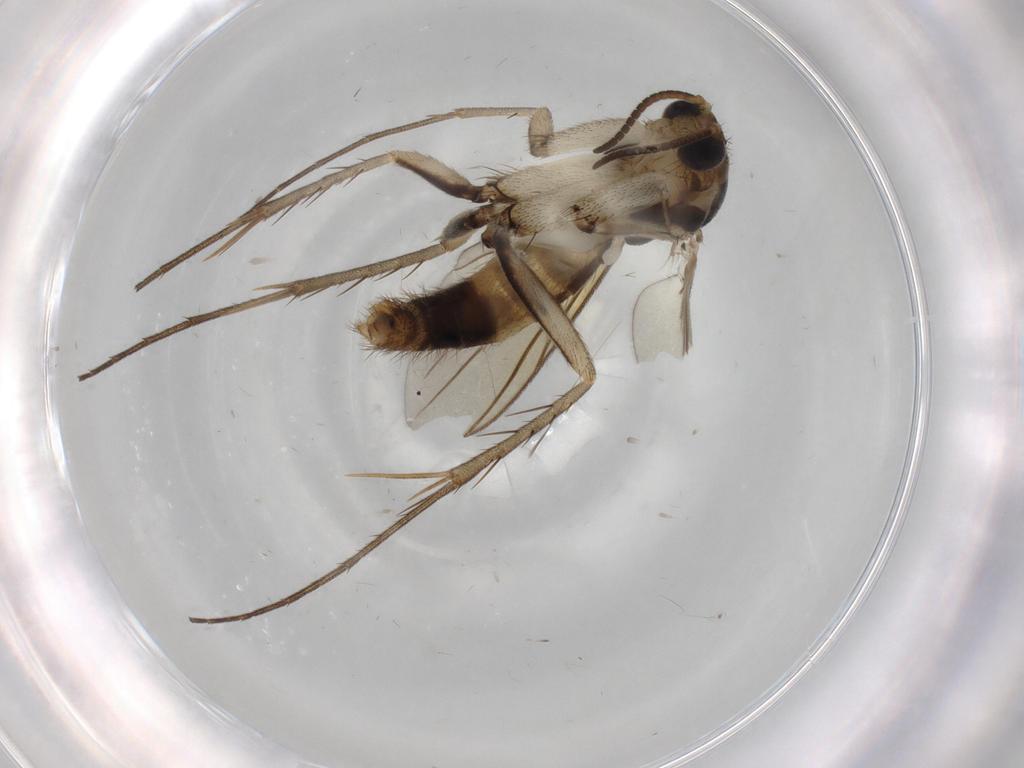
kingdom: Animalia
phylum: Arthropoda
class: Insecta
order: Diptera
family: Mycetophilidae
